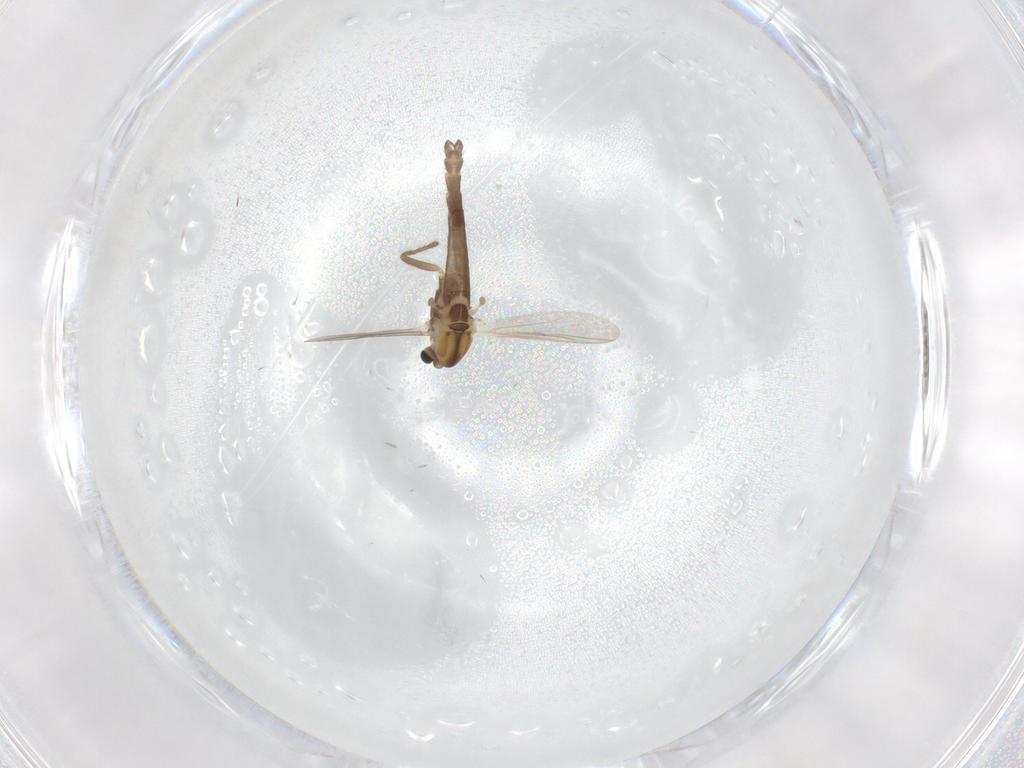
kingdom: Animalia
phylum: Arthropoda
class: Insecta
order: Diptera
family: Chironomidae
